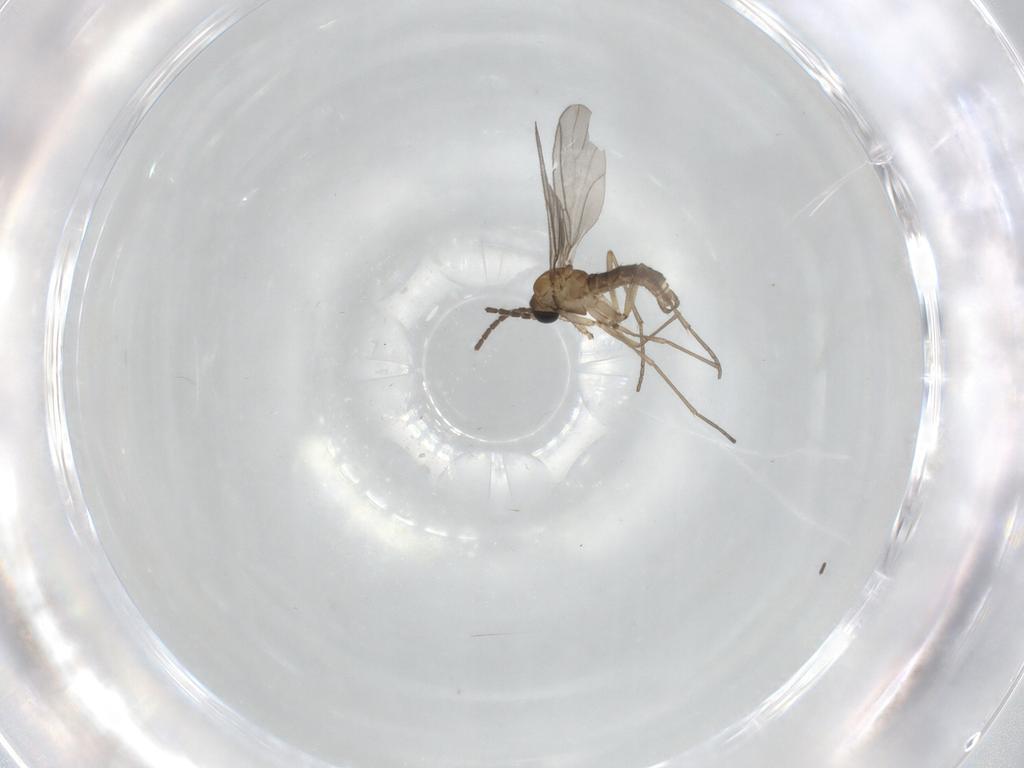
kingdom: Animalia
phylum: Arthropoda
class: Insecta
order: Diptera
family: Sciaridae
